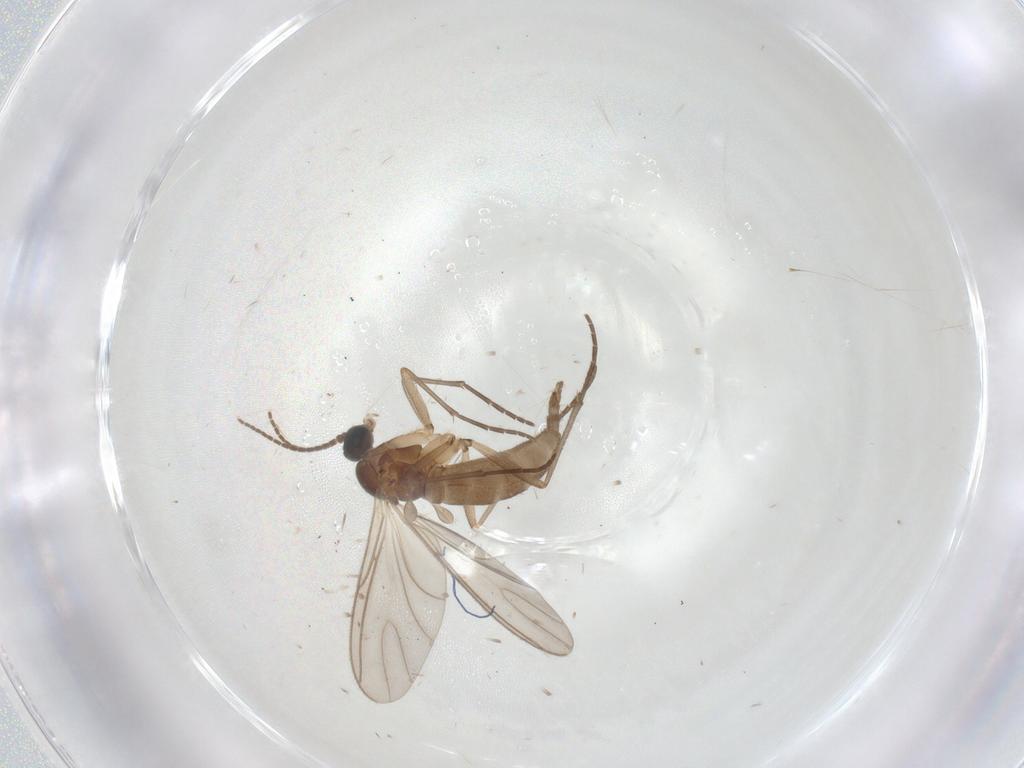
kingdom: Animalia
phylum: Arthropoda
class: Insecta
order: Diptera
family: Sciaridae
